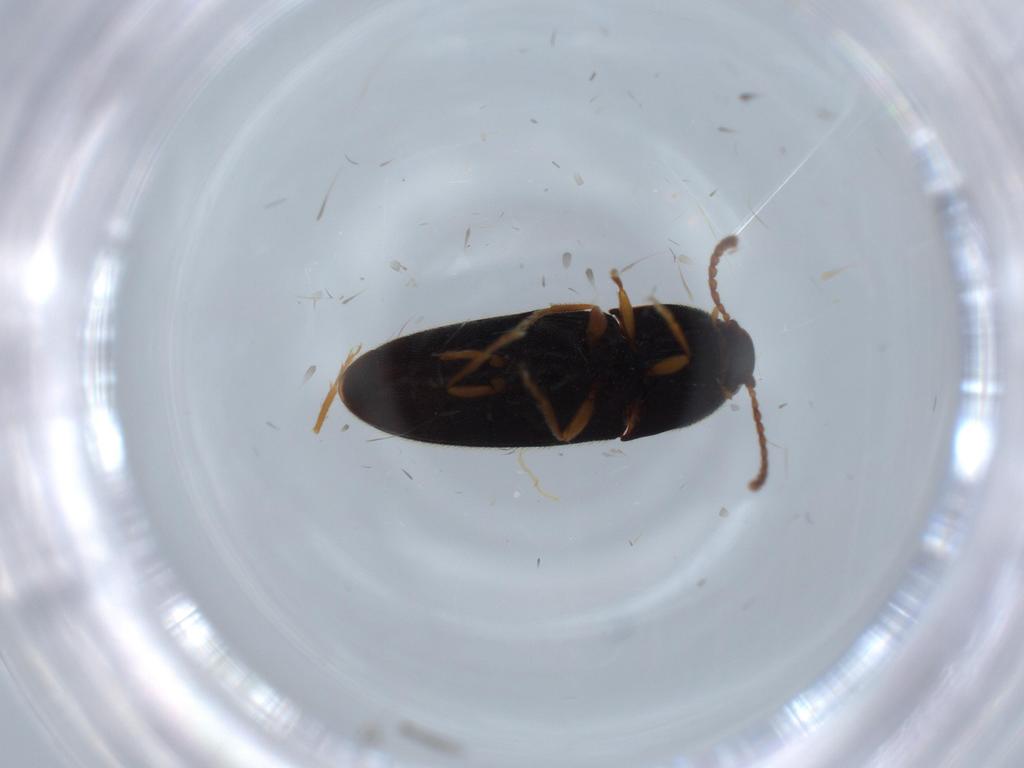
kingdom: Animalia
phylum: Arthropoda
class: Insecta
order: Coleoptera
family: Elateridae
